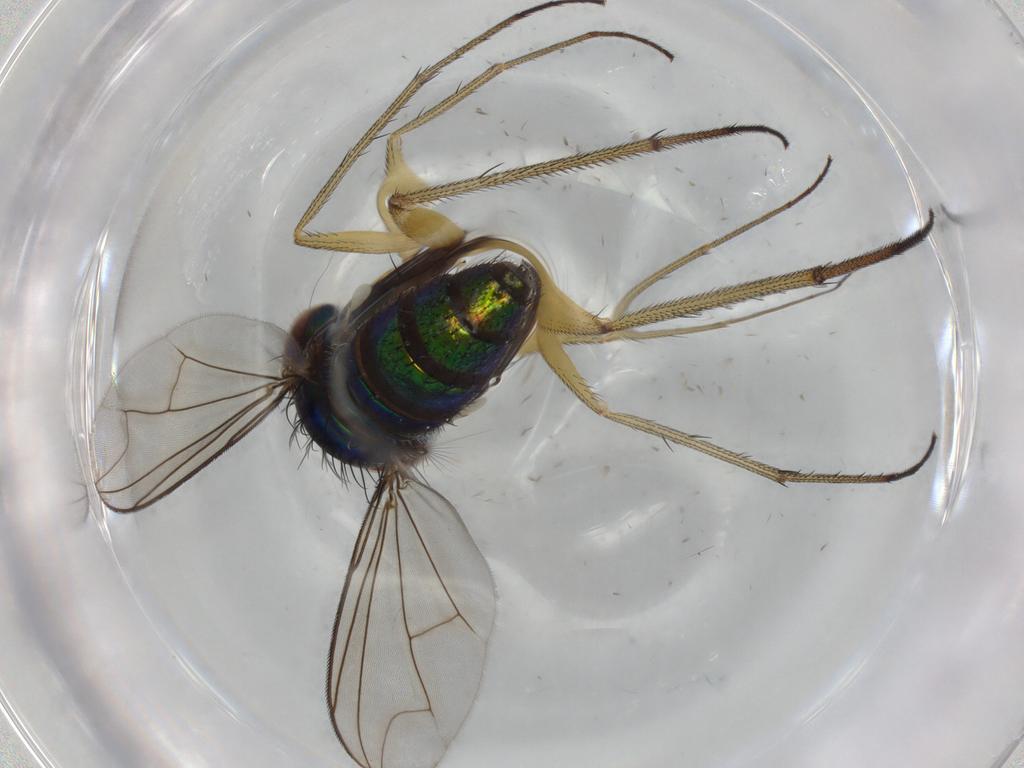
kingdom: Animalia
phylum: Arthropoda
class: Insecta
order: Diptera
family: Dolichopodidae
